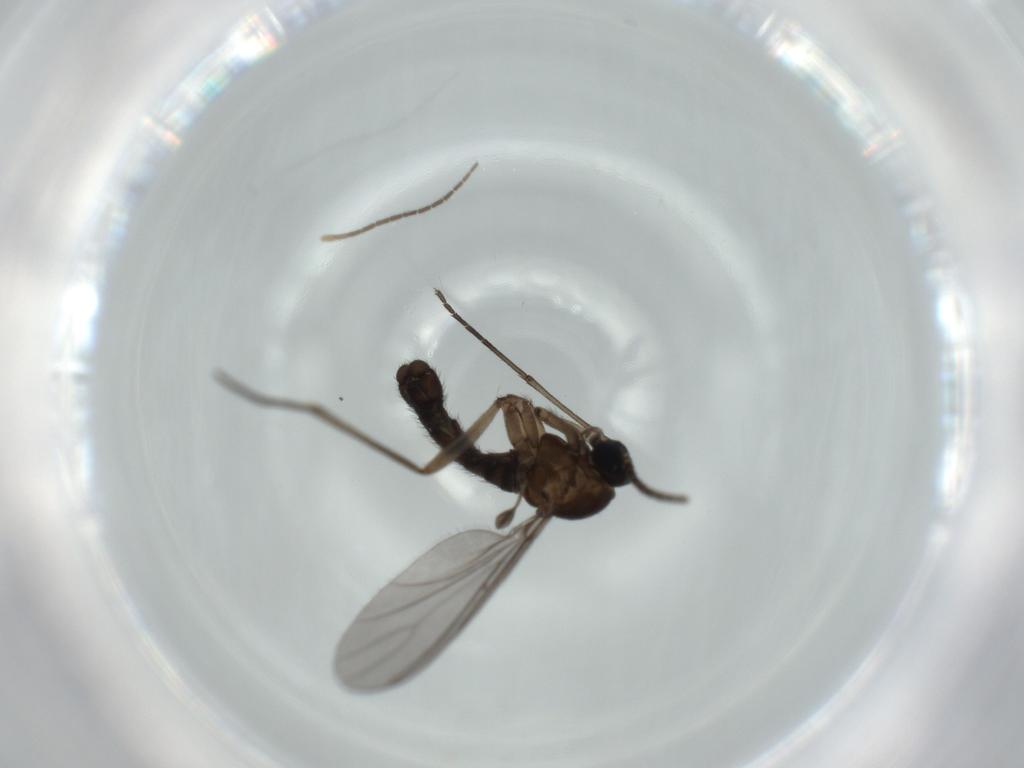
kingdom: Animalia
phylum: Arthropoda
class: Insecta
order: Diptera
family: Sciaridae
